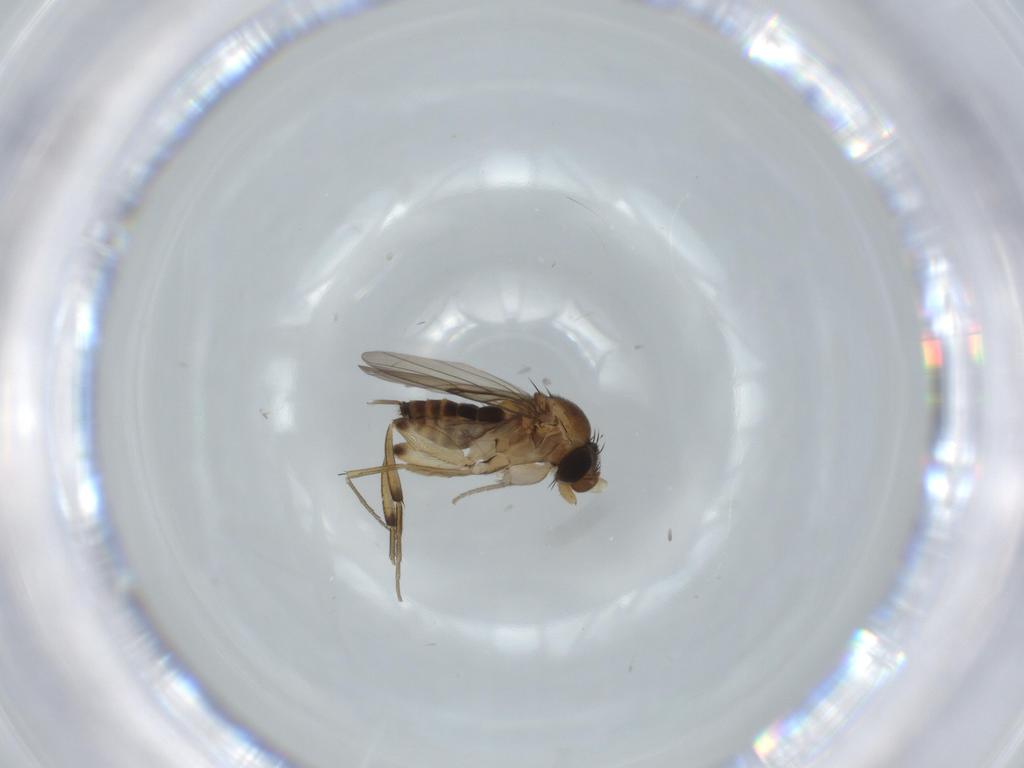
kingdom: Animalia
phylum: Arthropoda
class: Insecta
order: Diptera
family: Phoridae
